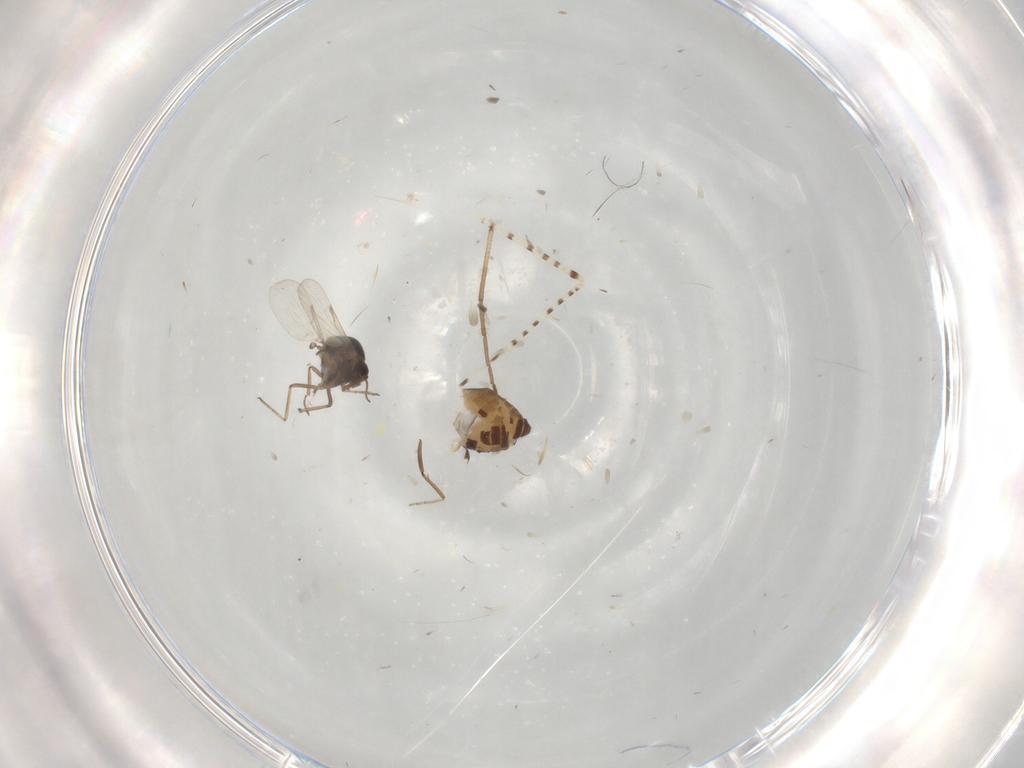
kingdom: Animalia
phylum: Arthropoda
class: Insecta
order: Diptera
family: Ceratopogonidae
